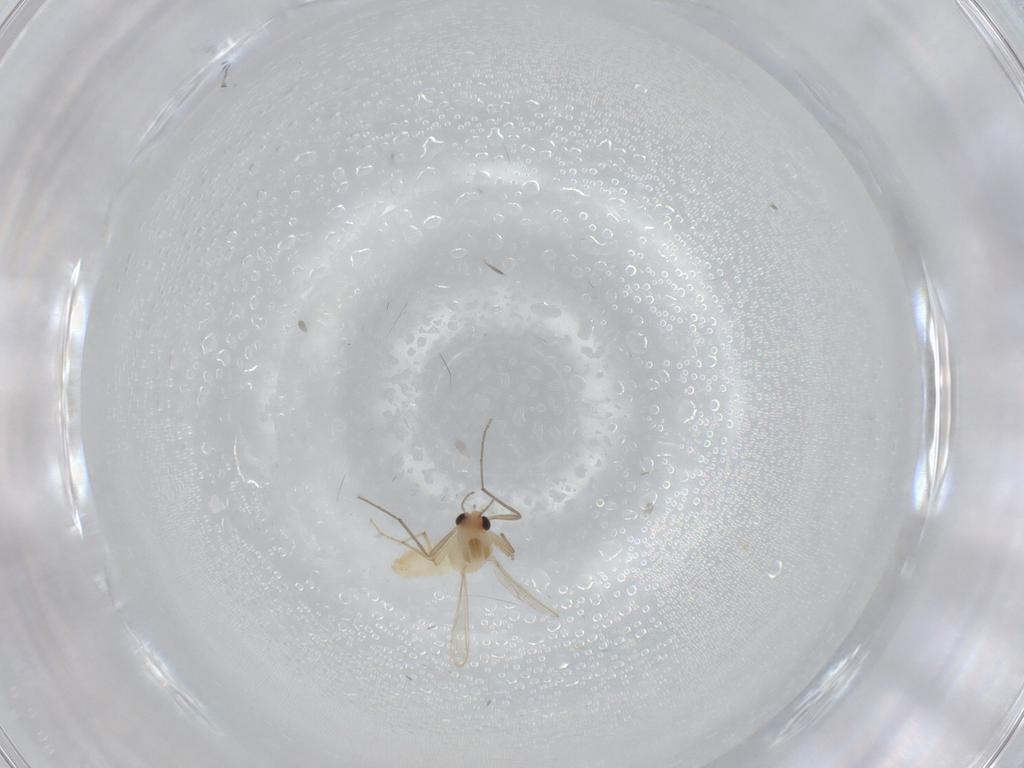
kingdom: Animalia
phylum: Arthropoda
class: Insecta
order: Diptera
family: Chironomidae
